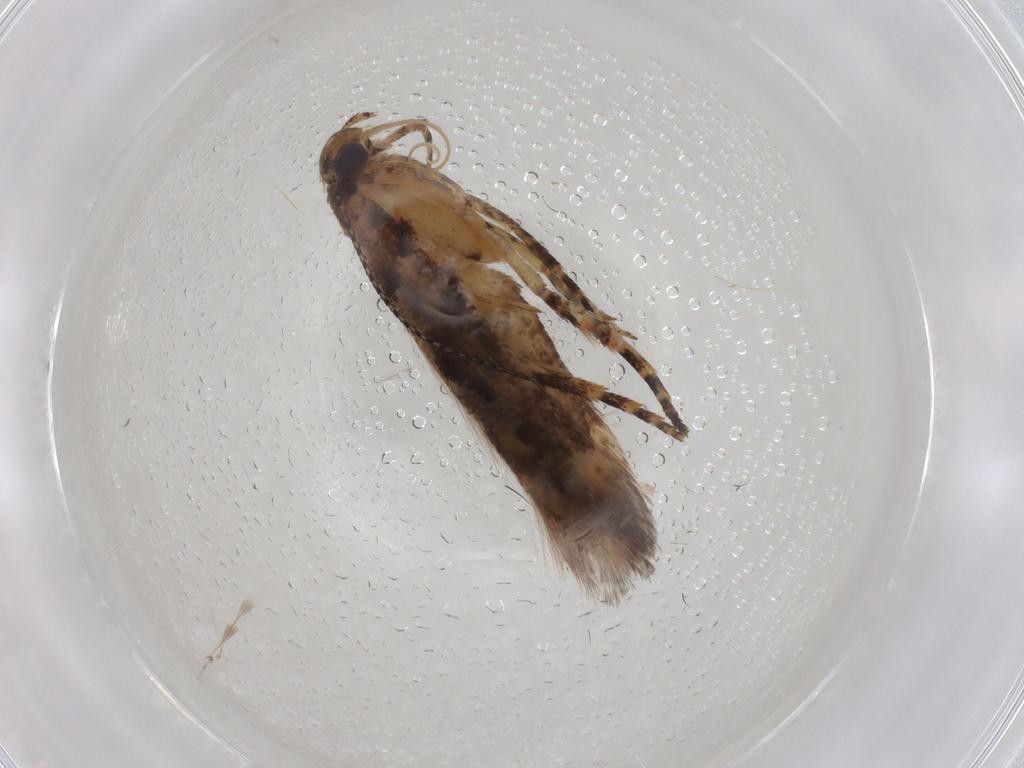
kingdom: Animalia
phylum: Arthropoda
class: Insecta
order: Lepidoptera
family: Gelechiidae
